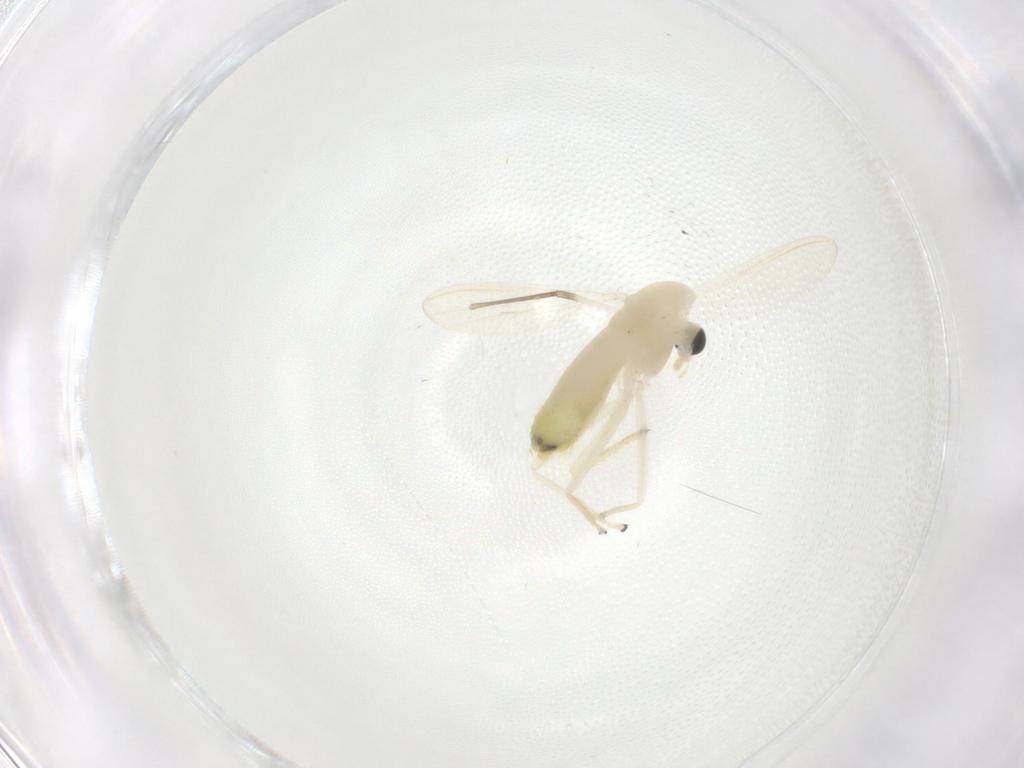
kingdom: Animalia
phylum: Arthropoda
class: Insecta
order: Diptera
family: Chironomidae
